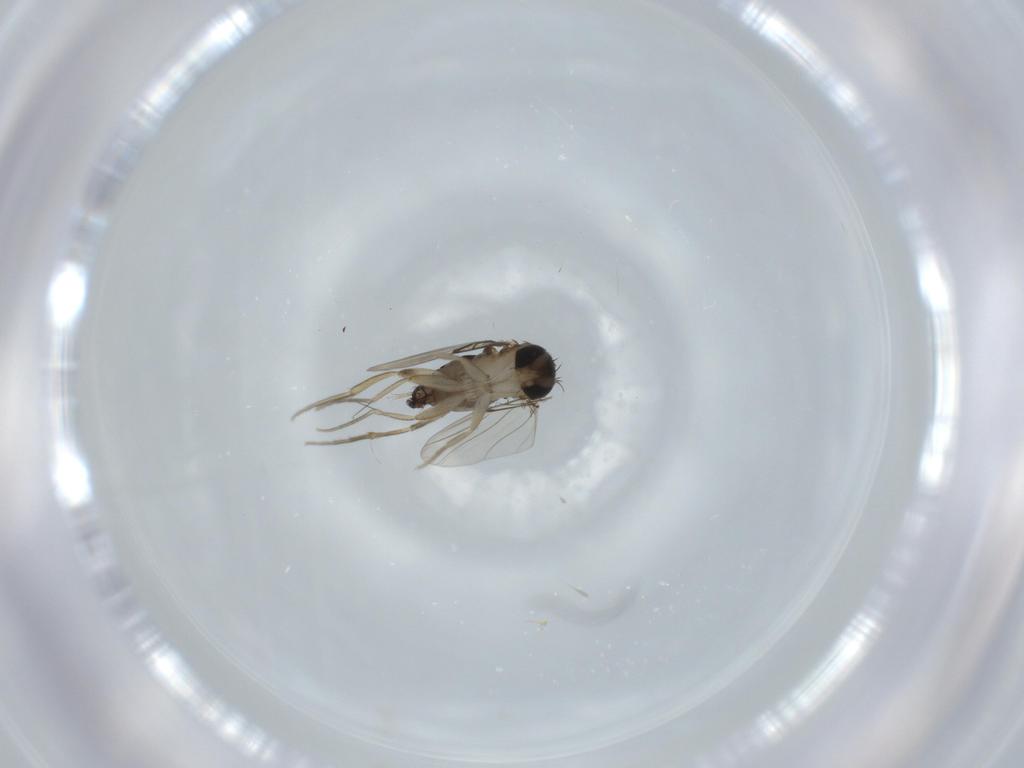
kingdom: Animalia
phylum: Arthropoda
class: Insecta
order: Diptera
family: Phoridae
